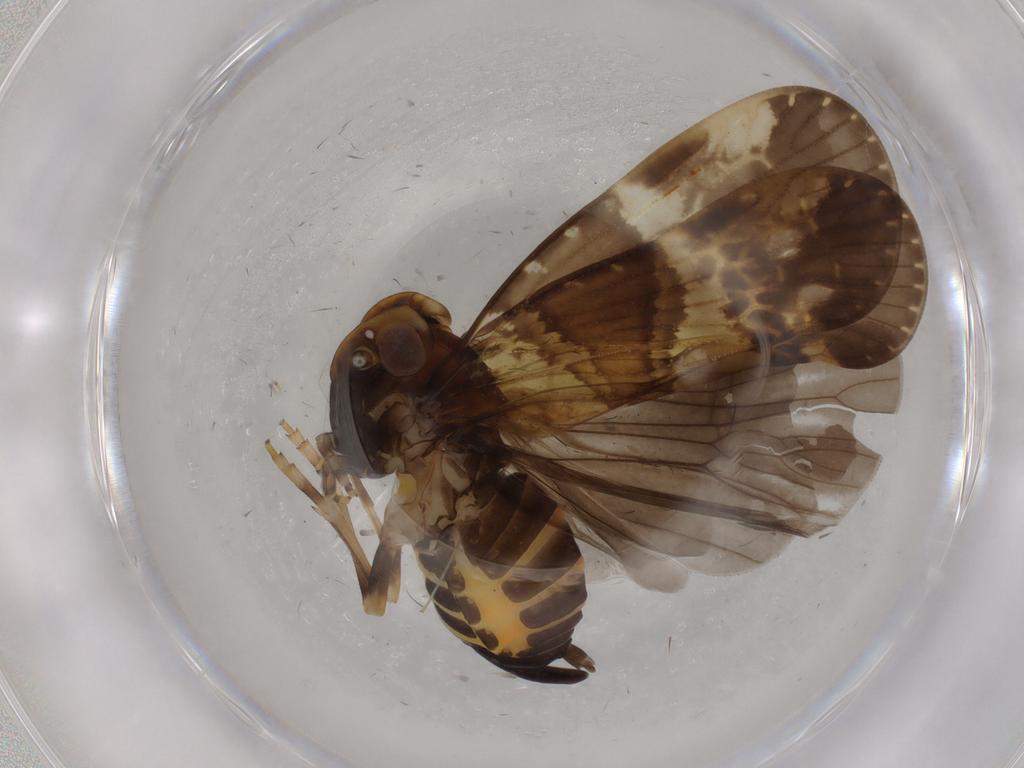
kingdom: Animalia
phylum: Arthropoda
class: Insecta
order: Hemiptera
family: Cixiidae
